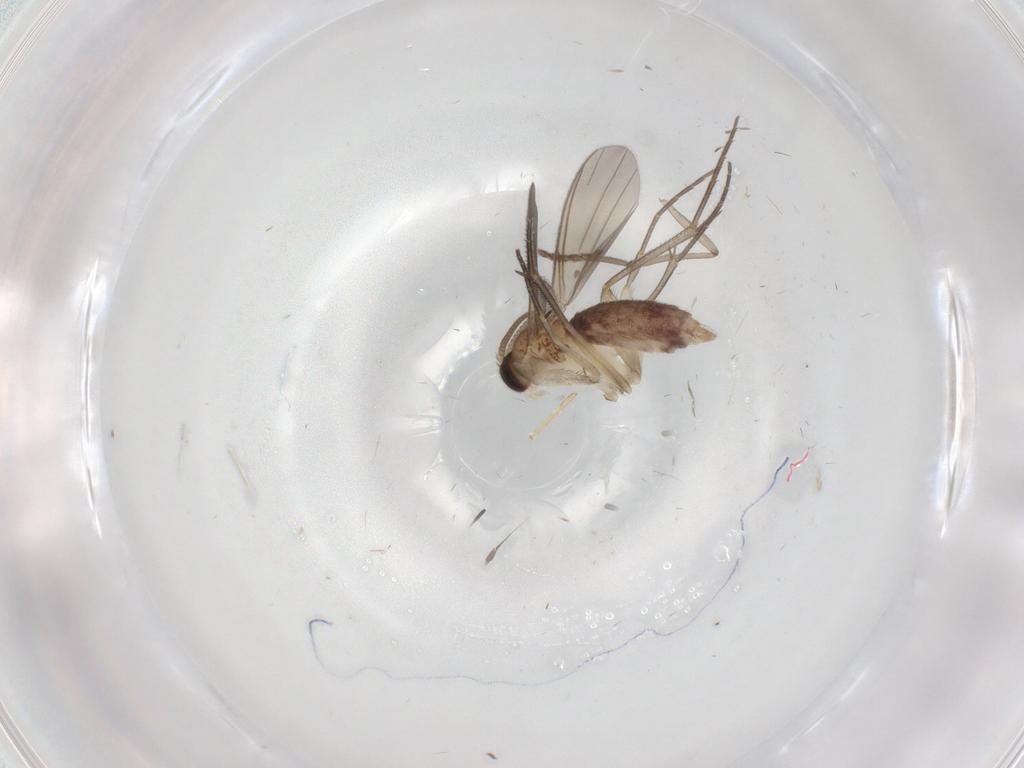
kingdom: Animalia
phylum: Arthropoda
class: Insecta
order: Diptera
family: Mycetophilidae
